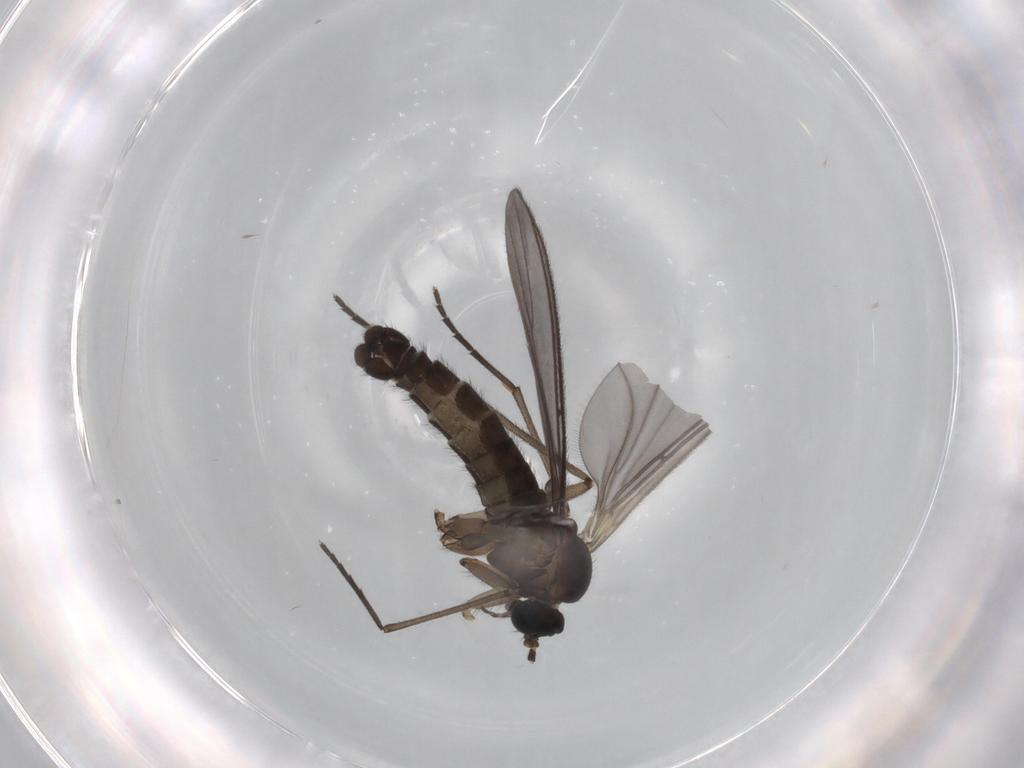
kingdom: Animalia
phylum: Arthropoda
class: Insecta
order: Diptera
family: Sciaridae
